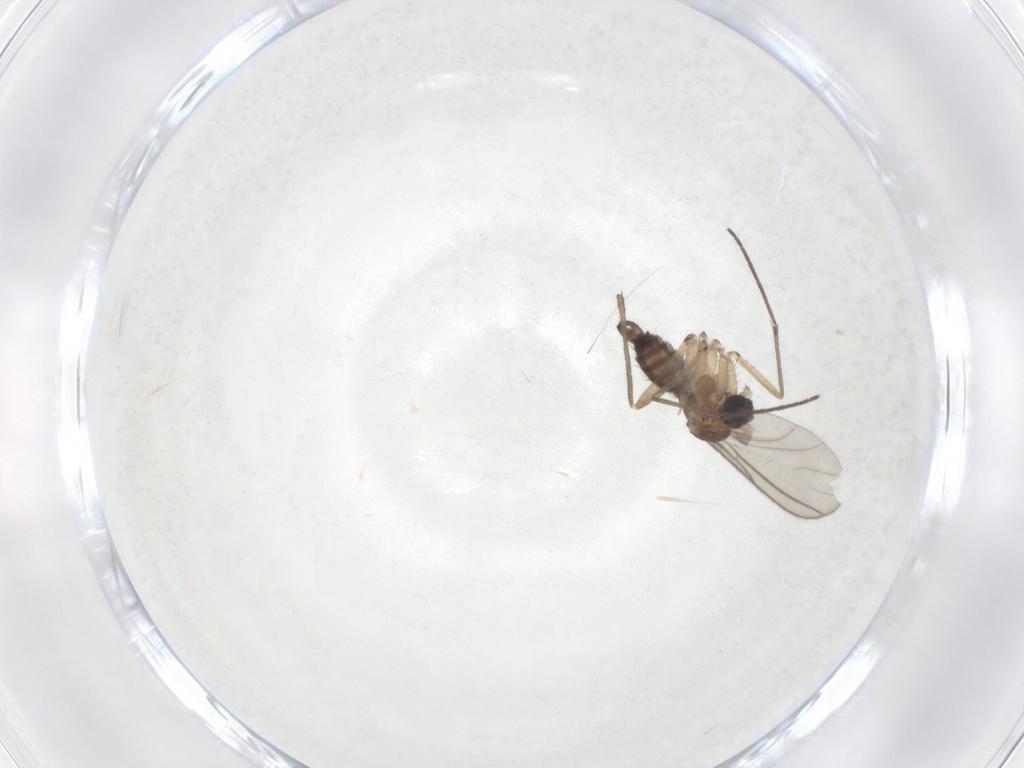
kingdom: Animalia
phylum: Arthropoda
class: Insecta
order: Diptera
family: Sciaridae
